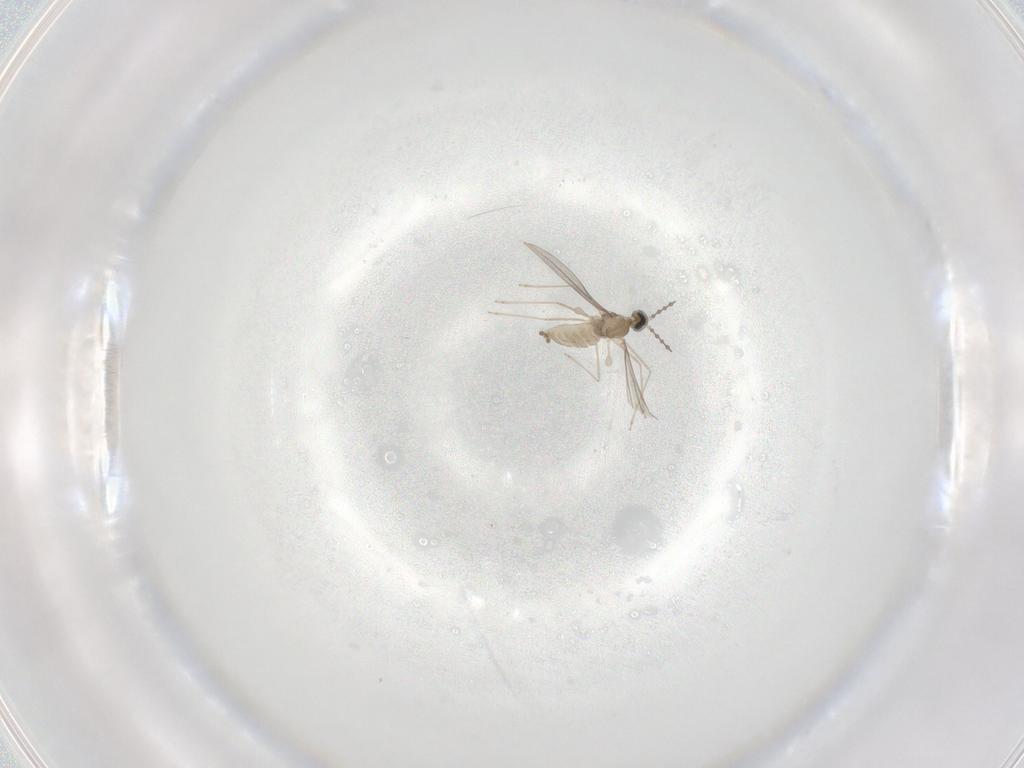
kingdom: Animalia
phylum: Arthropoda
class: Insecta
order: Diptera
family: Cecidomyiidae
